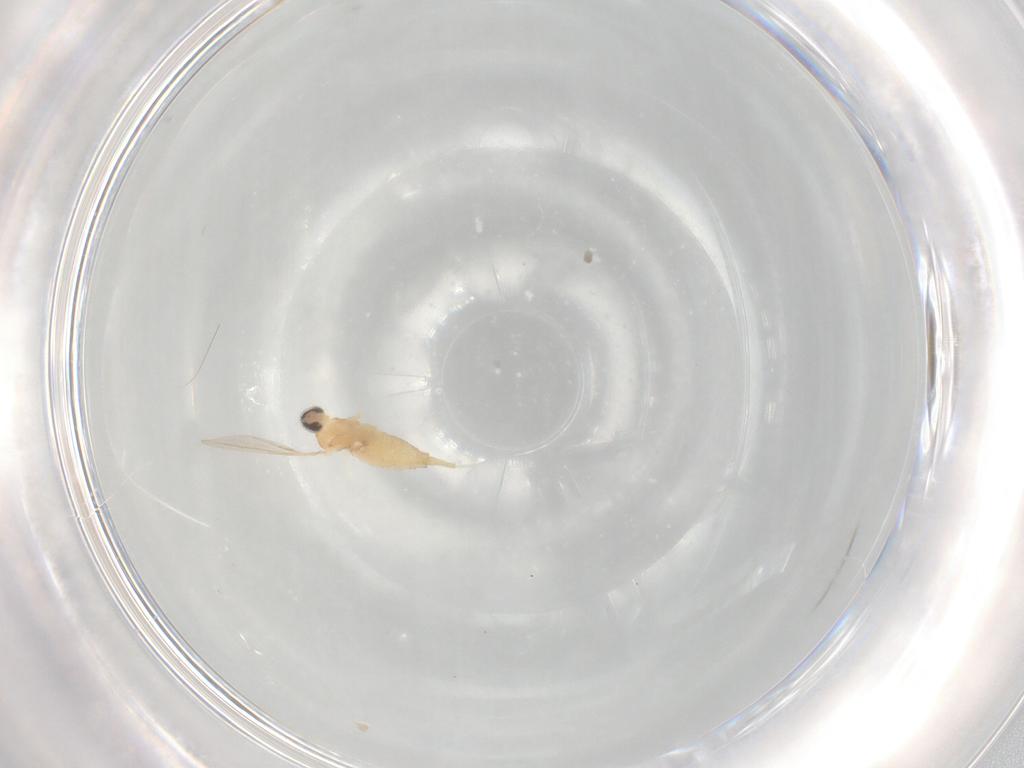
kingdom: Animalia
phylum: Arthropoda
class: Insecta
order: Diptera
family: Cecidomyiidae
